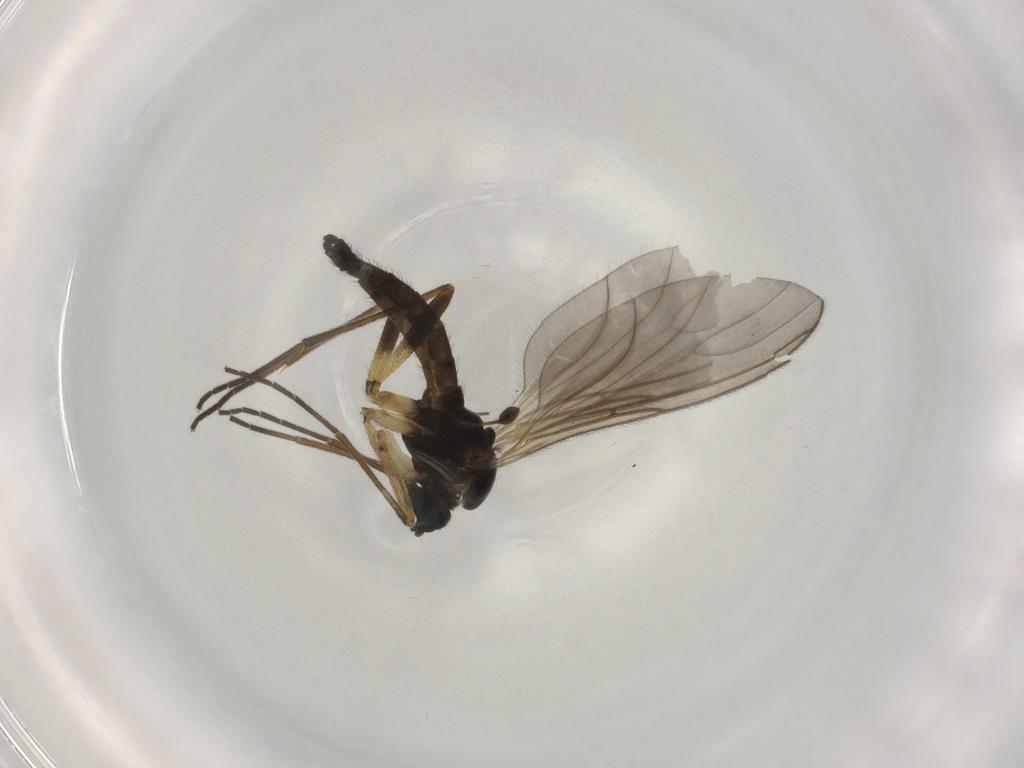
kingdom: Animalia
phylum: Arthropoda
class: Insecta
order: Diptera
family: Sciaridae
